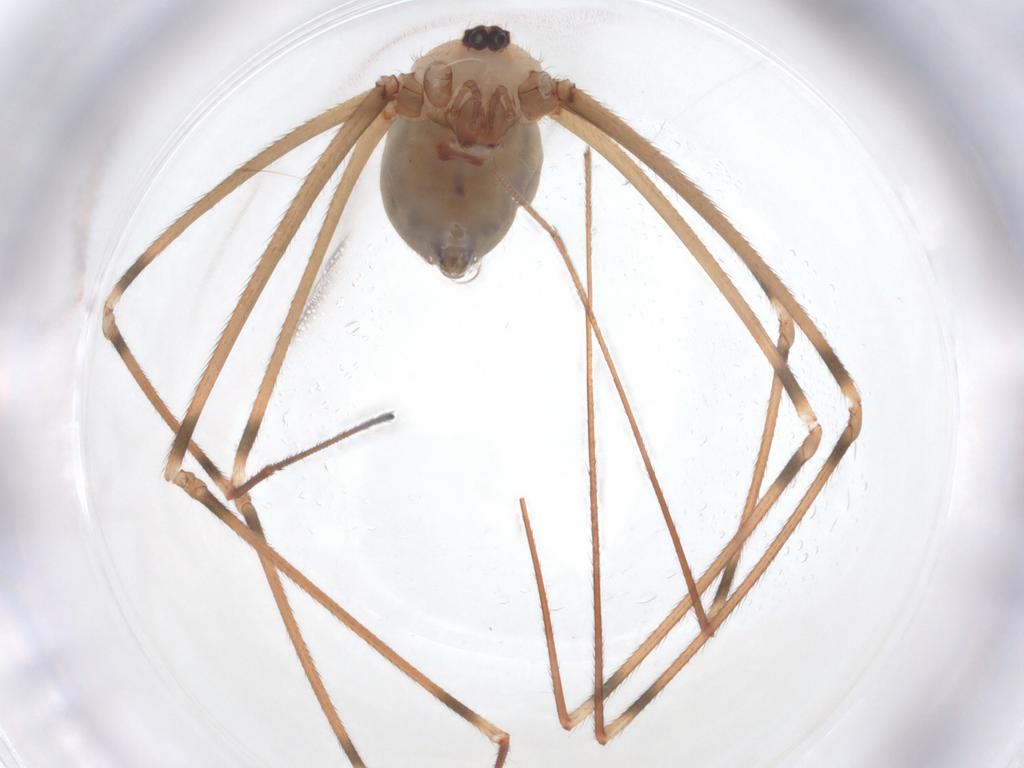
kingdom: Animalia
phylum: Arthropoda
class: Arachnida
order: Araneae
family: Pholcidae
